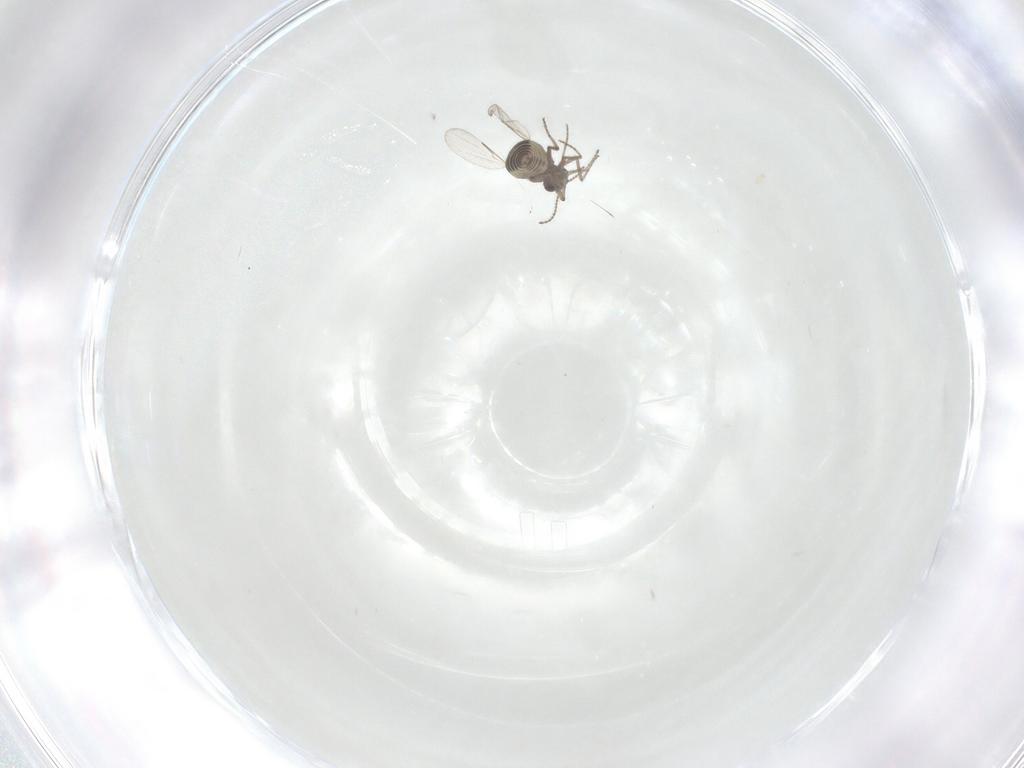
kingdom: Animalia
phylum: Arthropoda
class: Insecta
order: Diptera
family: Ceratopogonidae
